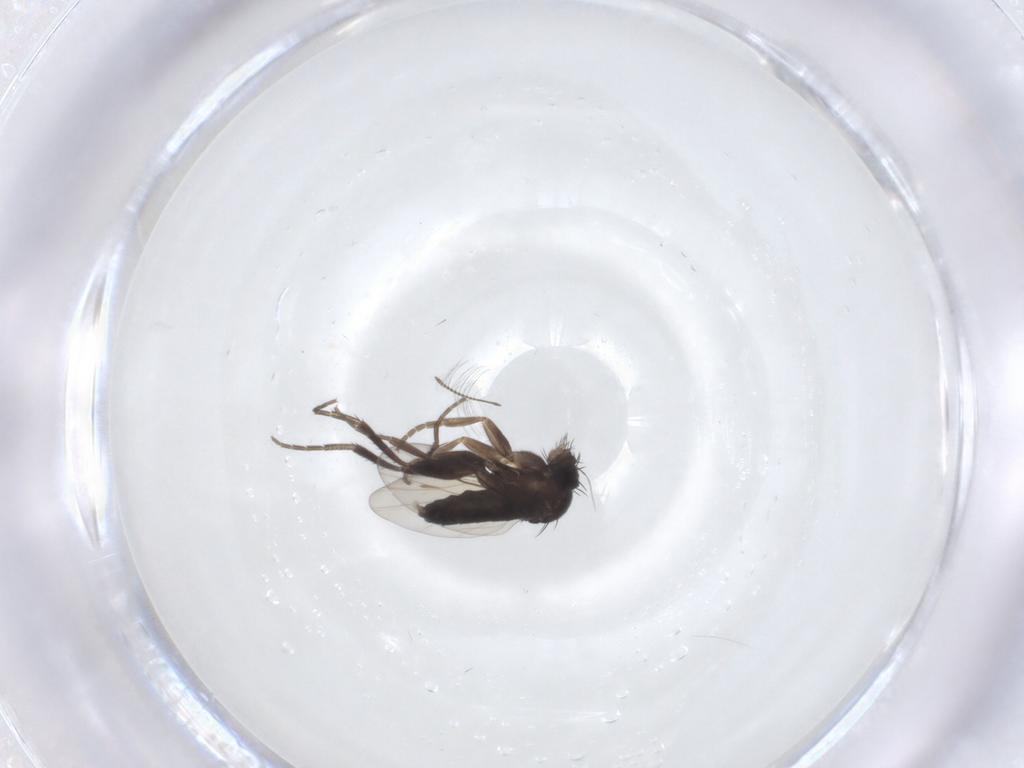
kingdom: Animalia
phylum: Arthropoda
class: Insecta
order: Diptera
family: Phoridae
